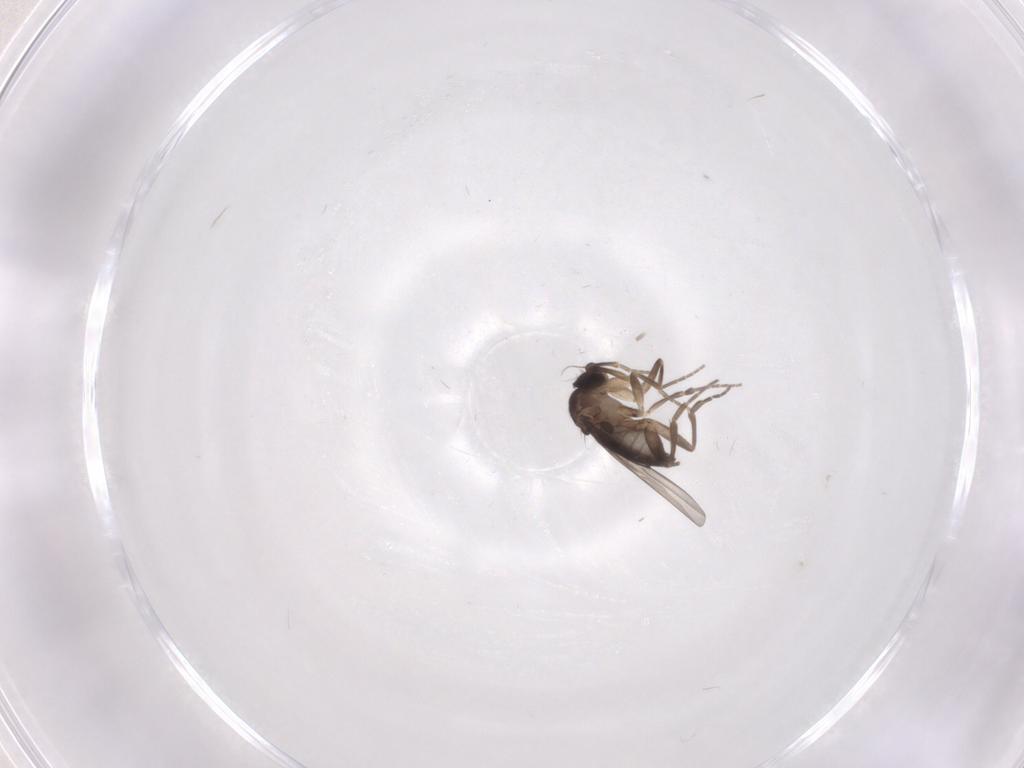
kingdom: Animalia
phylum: Arthropoda
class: Insecta
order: Diptera
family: Phoridae
